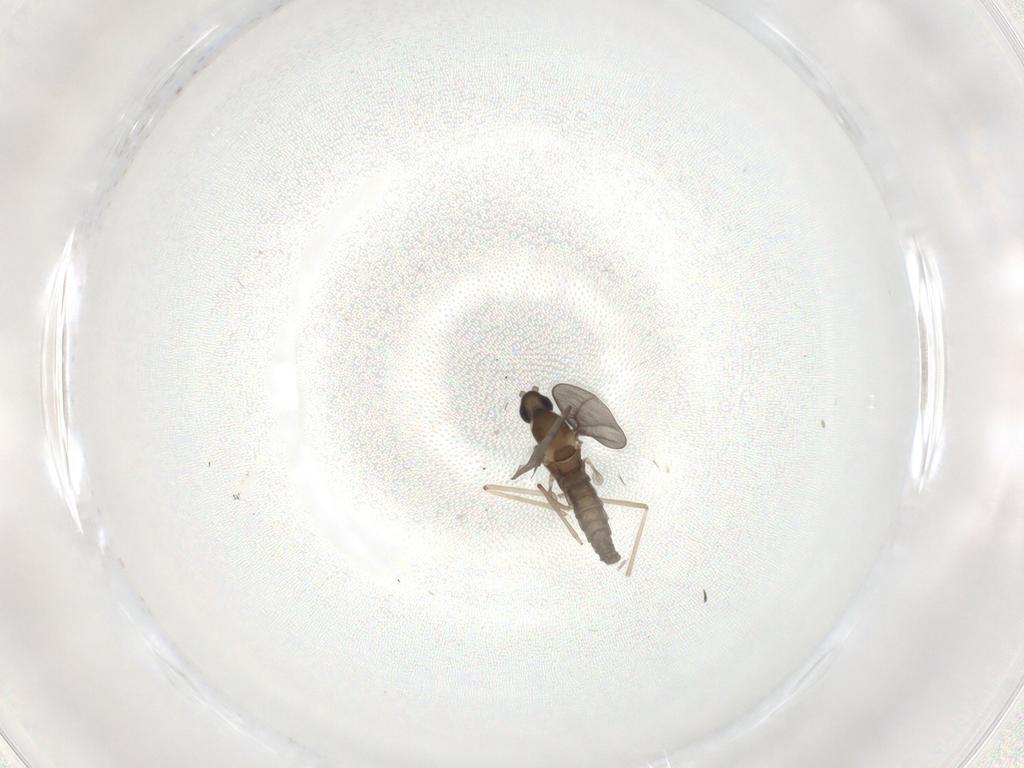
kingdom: Animalia
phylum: Arthropoda
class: Insecta
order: Diptera
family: Cecidomyiidae
